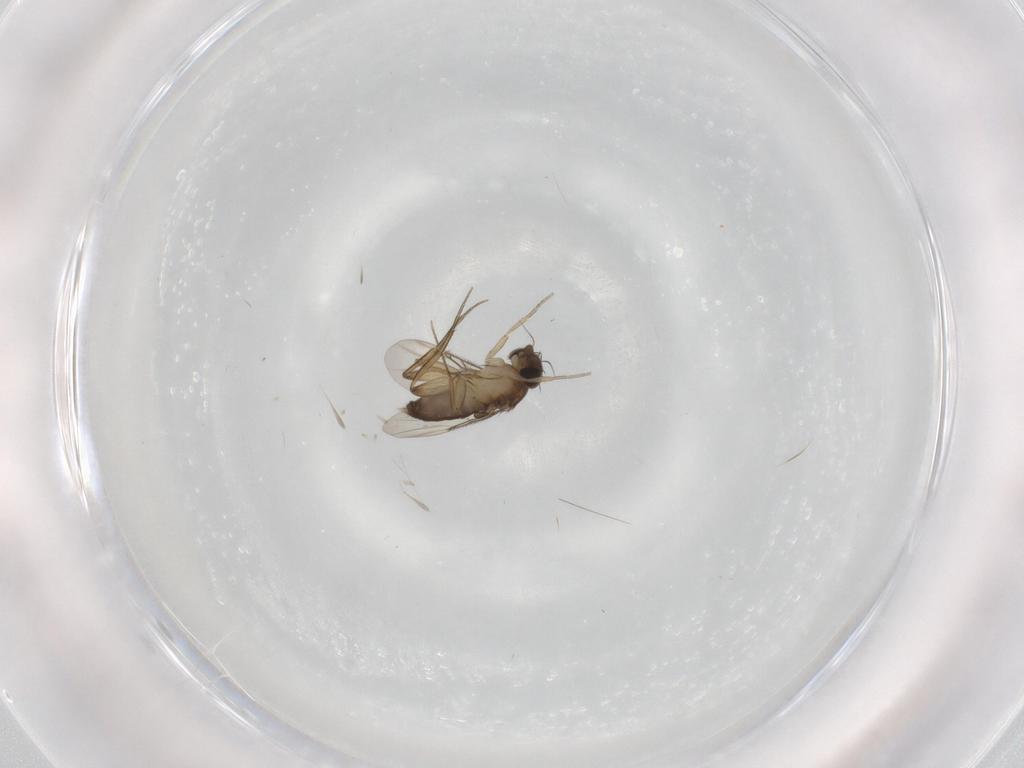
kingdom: Animalia
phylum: Arthropoda
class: Insecta
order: Diptera
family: Phoridae
